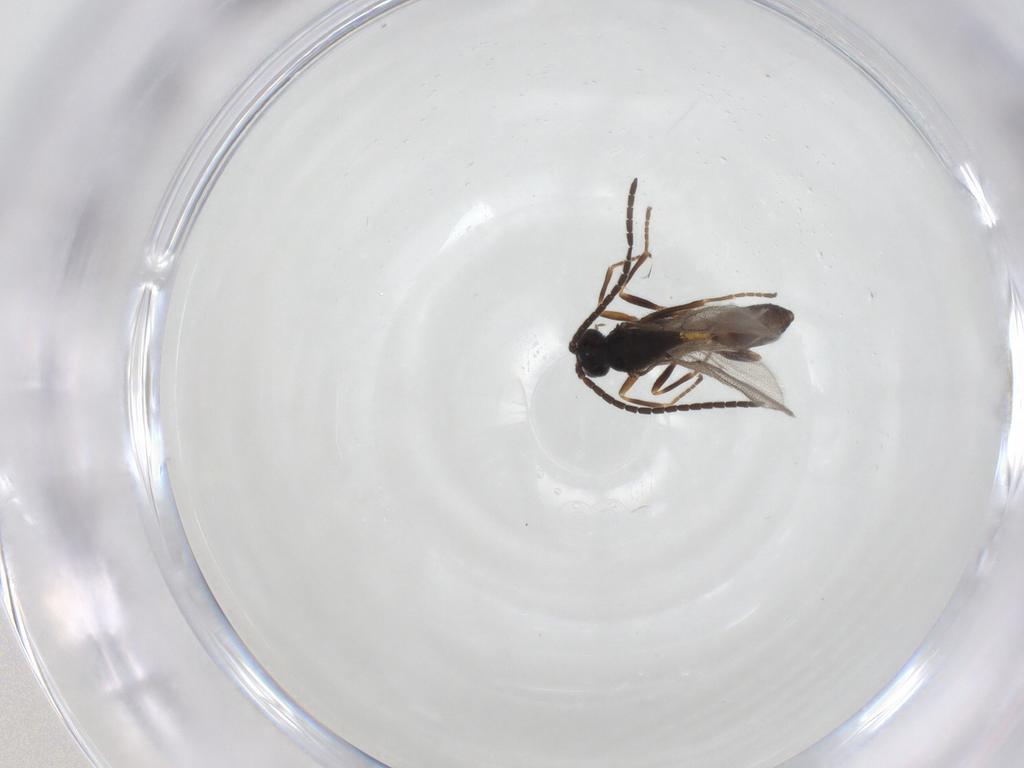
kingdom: Animalia
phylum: Arthropoda
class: Insecta
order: Hymenoptera
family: Braconidae
